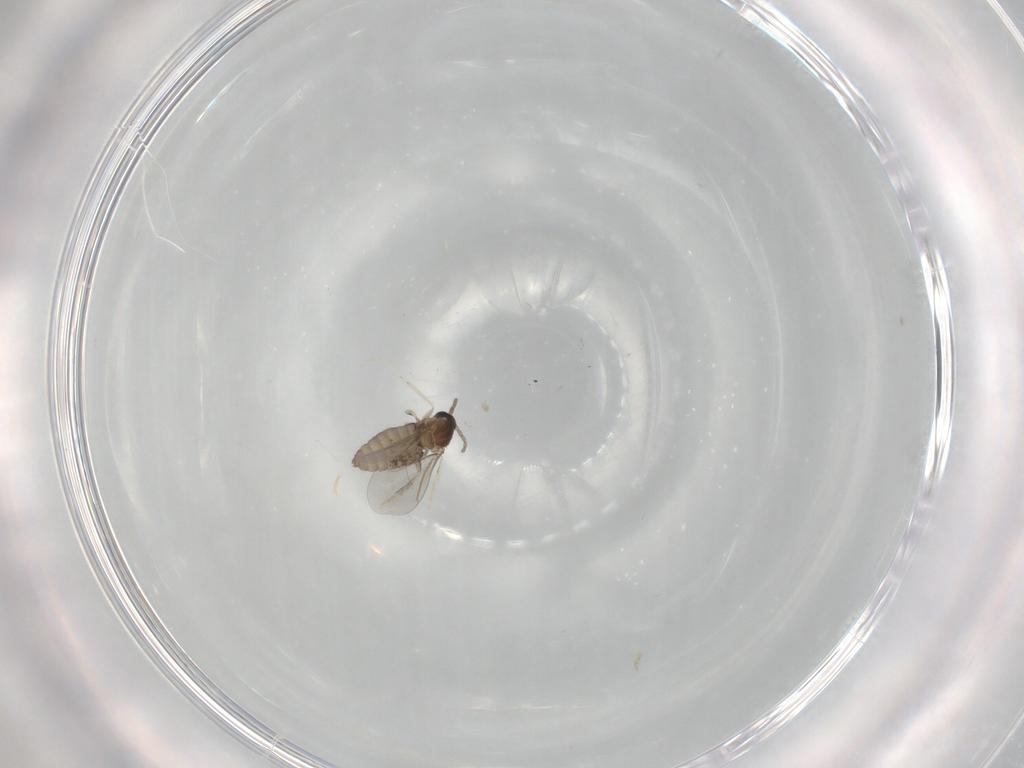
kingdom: Animalia
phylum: Arthropoda
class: Insecta
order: Diptera
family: Cecidomyiidae
